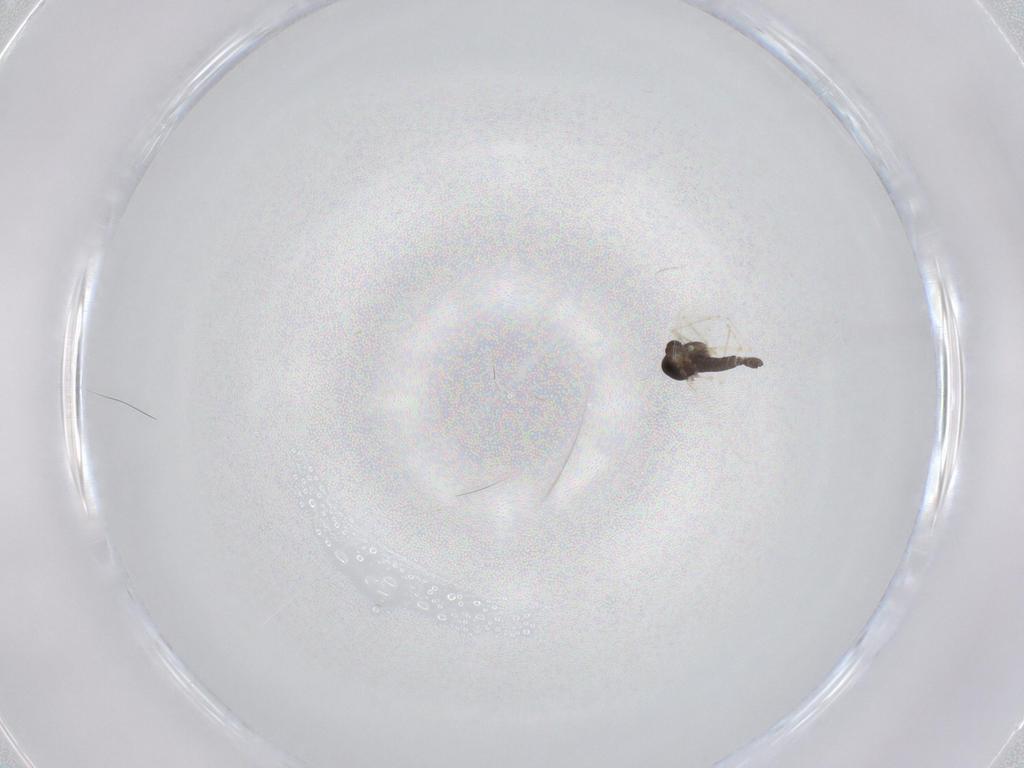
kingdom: Animalia
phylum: Arthropoda
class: Insecta
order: Diptera
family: Chironomidae
